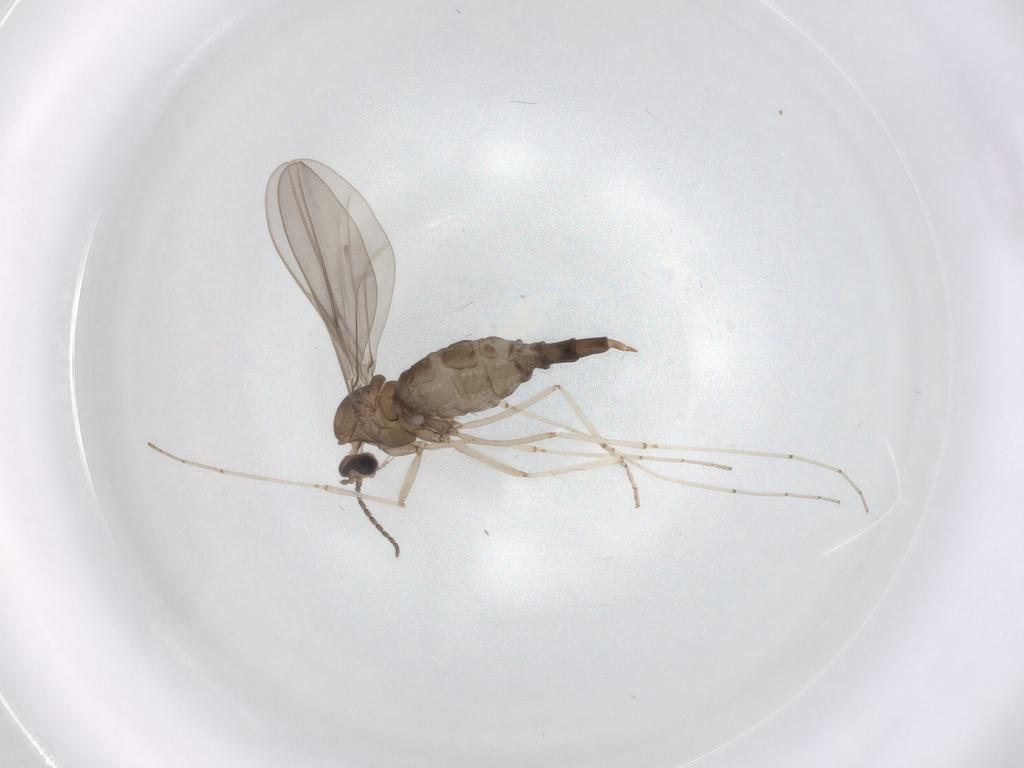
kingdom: Animalia
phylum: Arthropoda
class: Insecta
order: Diptera
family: Cecidomyiidae
